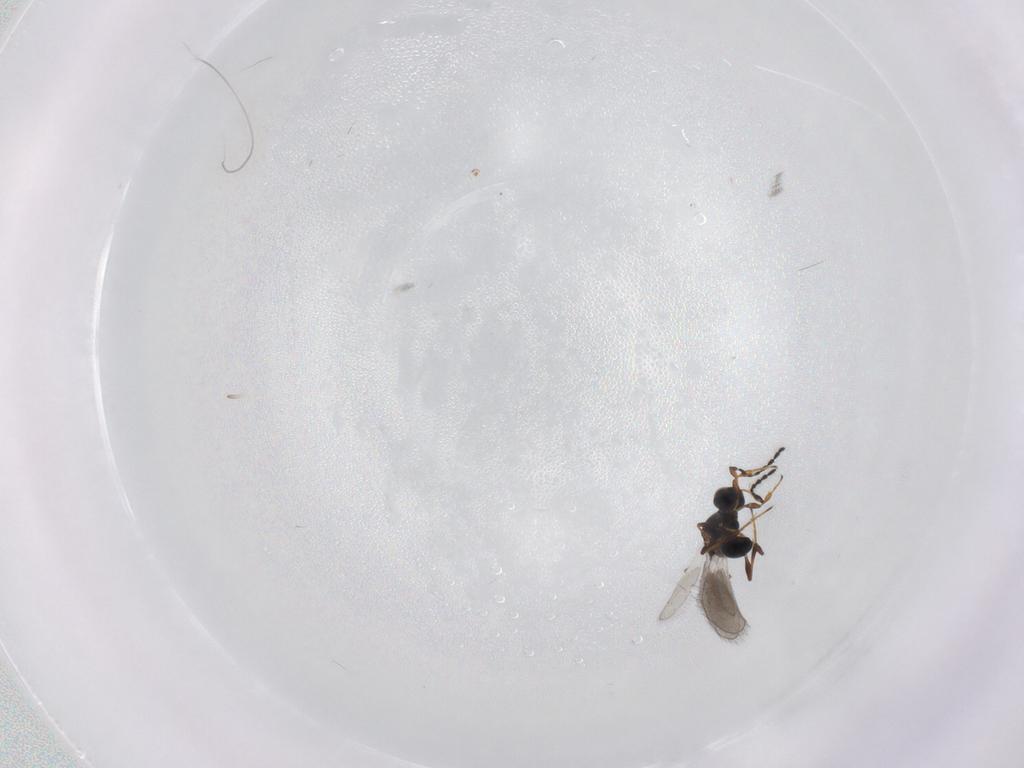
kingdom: Animalia
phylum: Arthropoda
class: Insecta
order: Hymenoptera
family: Platygastridae
